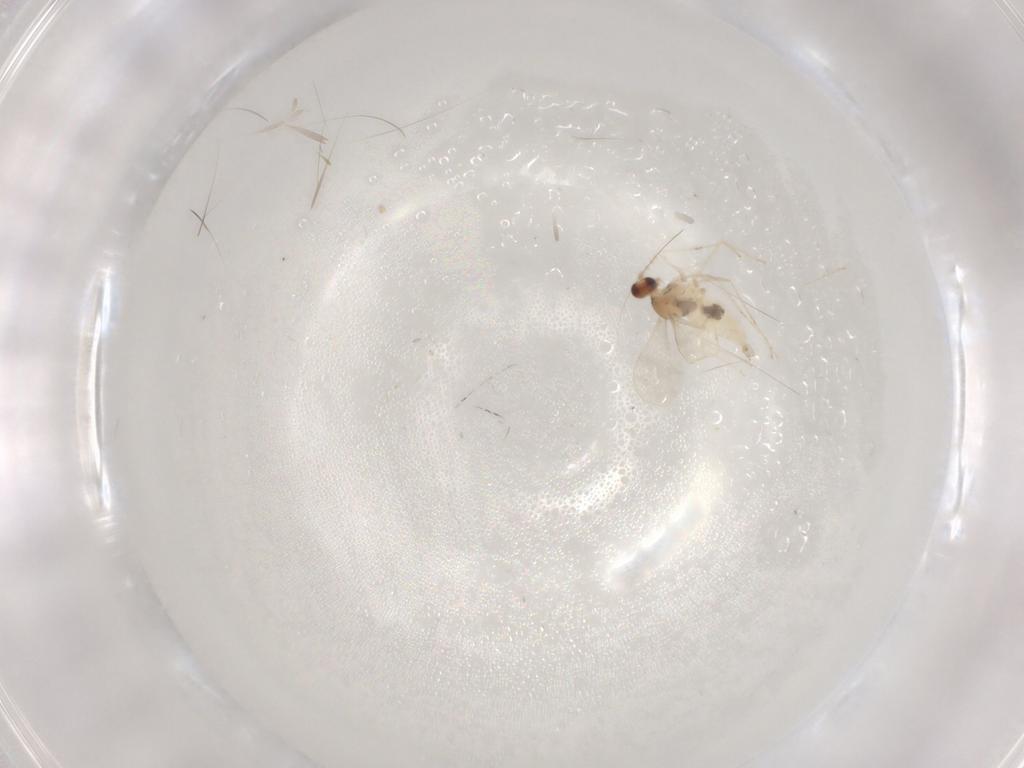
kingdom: Animalia
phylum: Arthropoda
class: Insecta
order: Diptera
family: Cecidomyiidae
